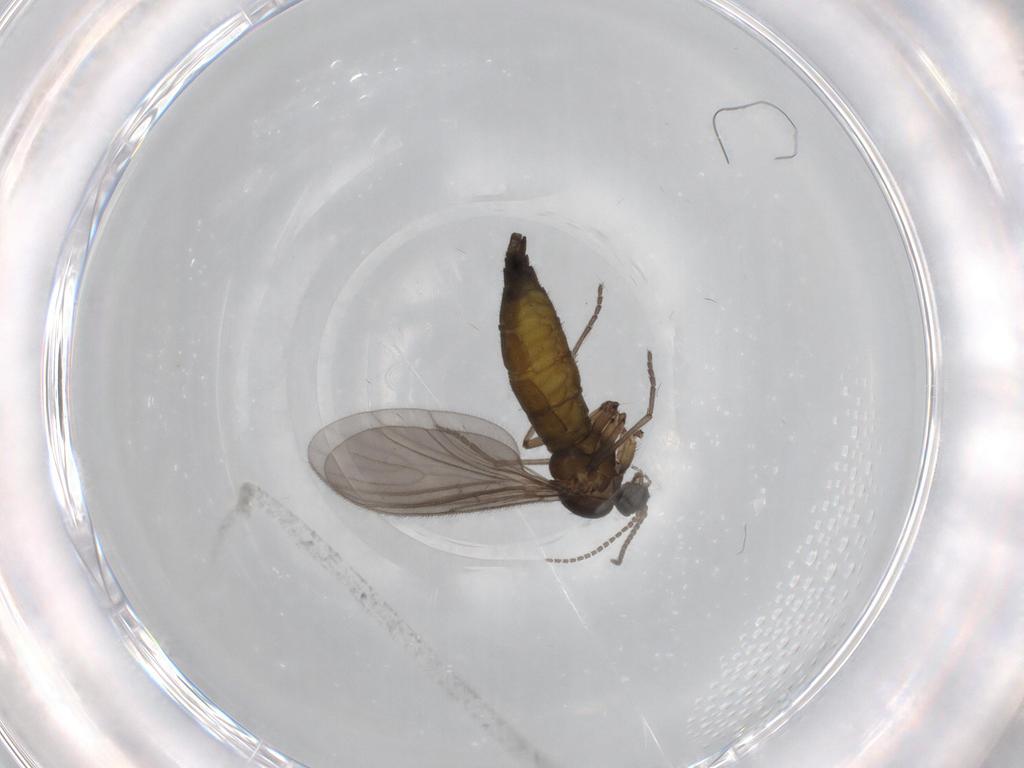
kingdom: Animalia
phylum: Arthropoda
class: Insecta
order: Diptera
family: Sciaridae
